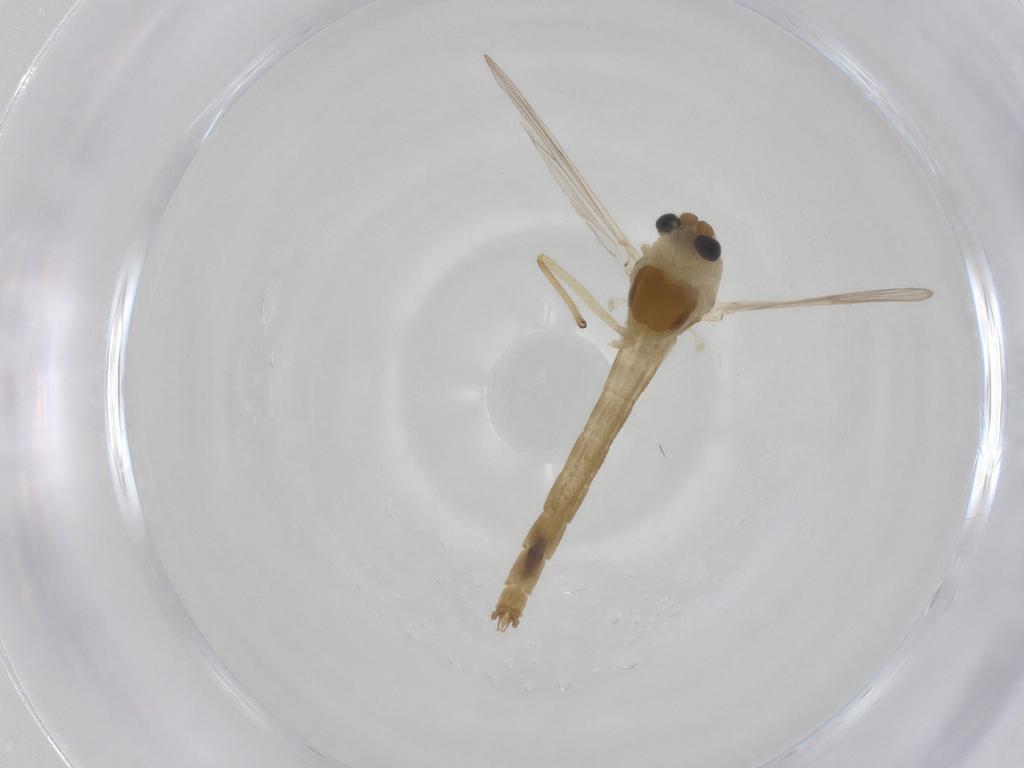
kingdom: Animalia
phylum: Arthropoda
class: Insecta
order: Diptera
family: Chironomidae
